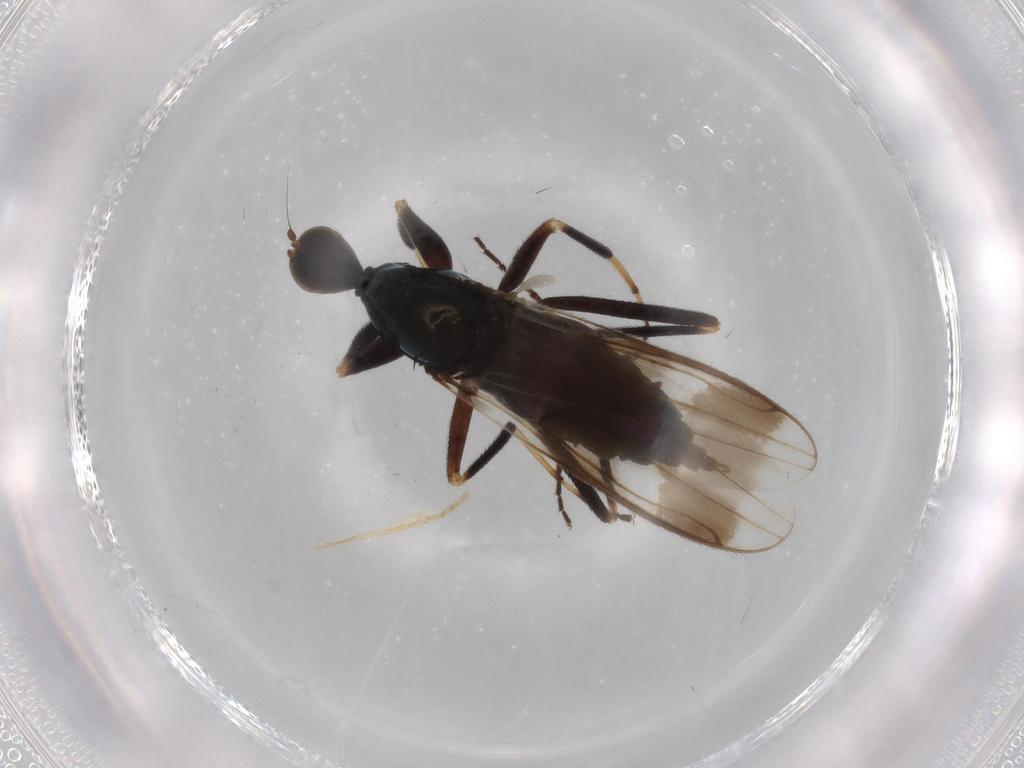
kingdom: Animalia
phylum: Arthropoda
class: Insecta
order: Diptera
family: Hybotidae
